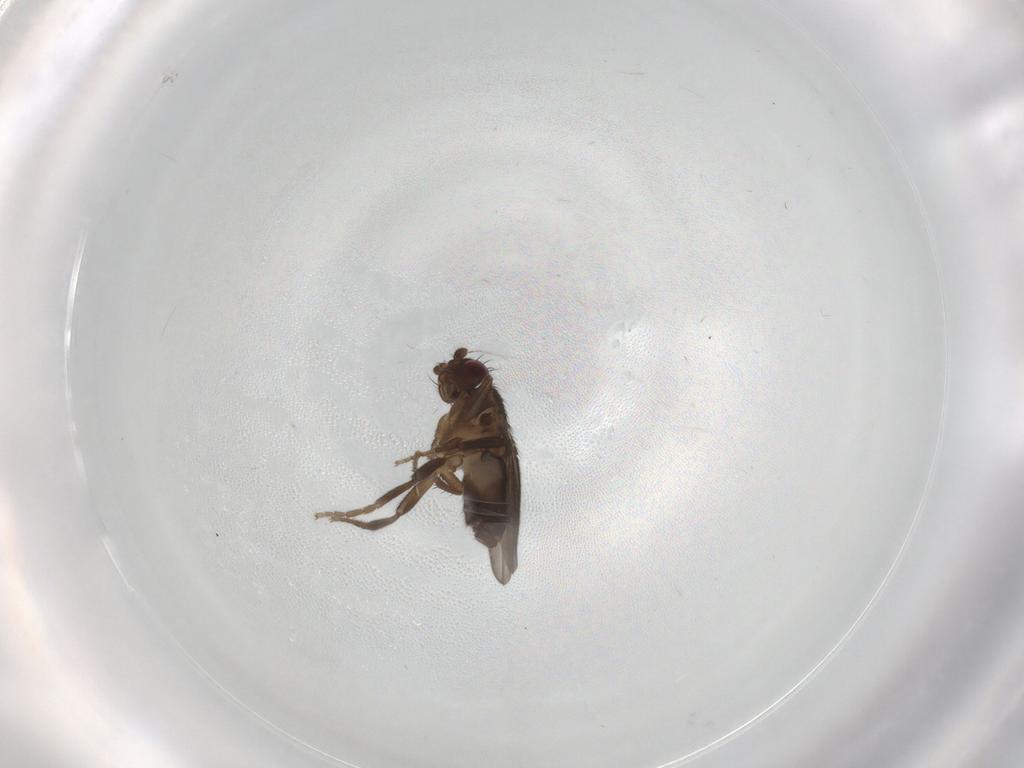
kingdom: Animalia
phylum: Arthropoda
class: Insecta
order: Diptera
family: Sphaeroceridae
